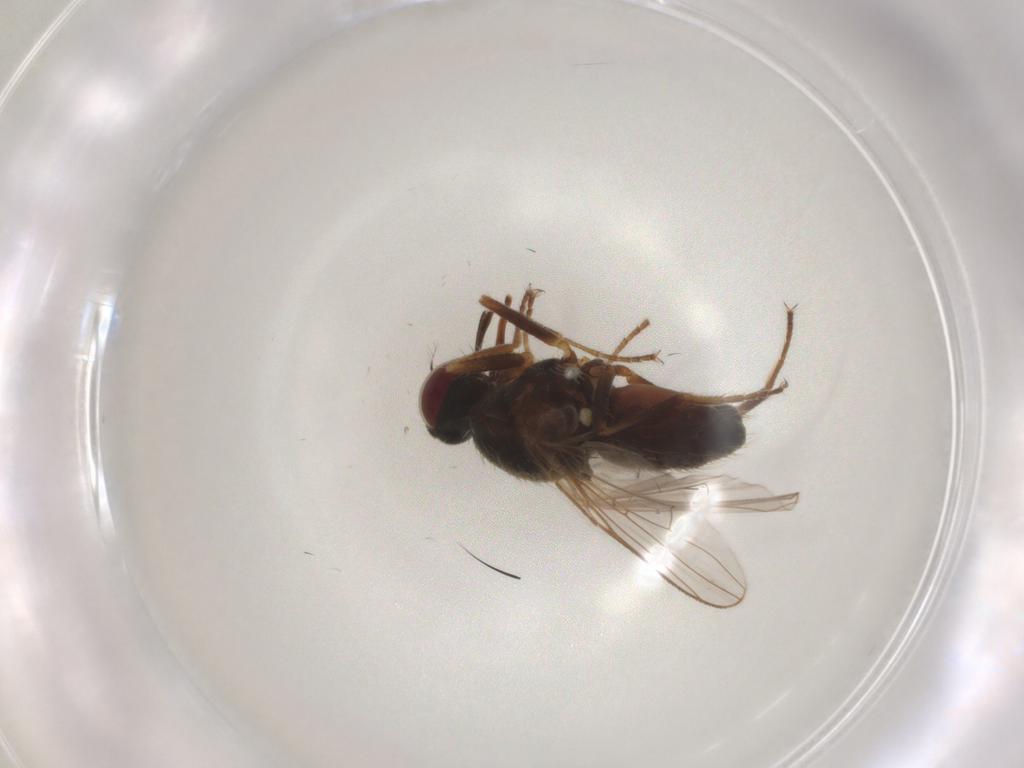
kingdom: Animalia
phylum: Arthropoda
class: Insecta
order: Diptera
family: Muscidae
